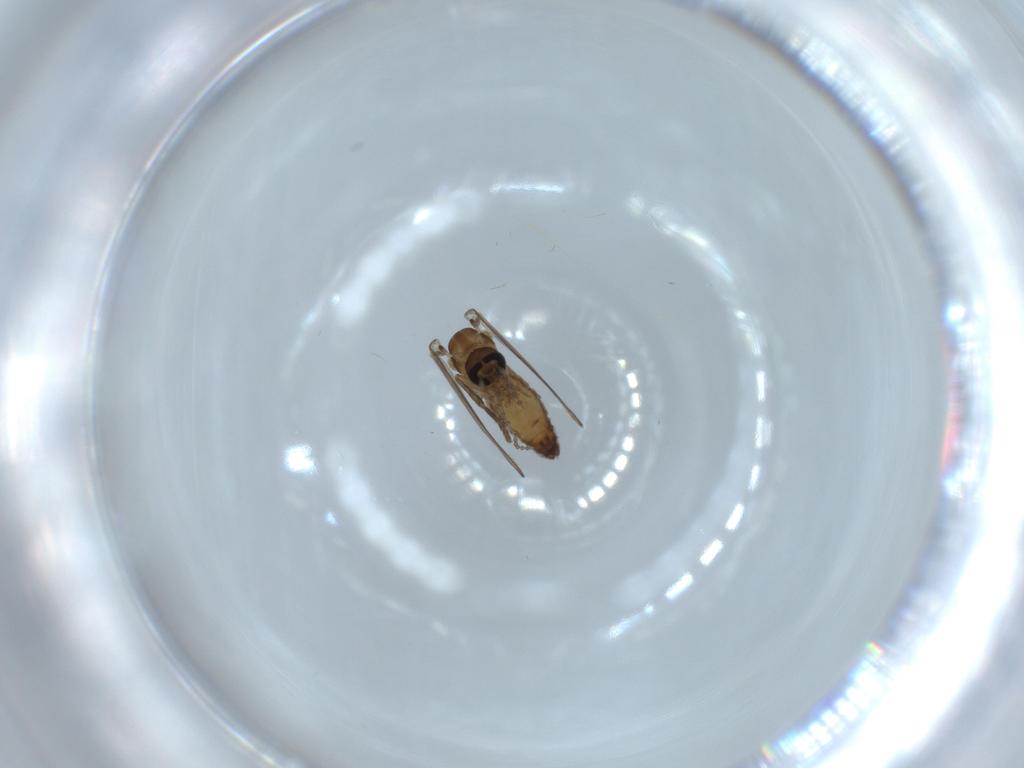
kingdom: Animalia
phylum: Arthropoda
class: Insecta
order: Diptera
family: Psychodidae
